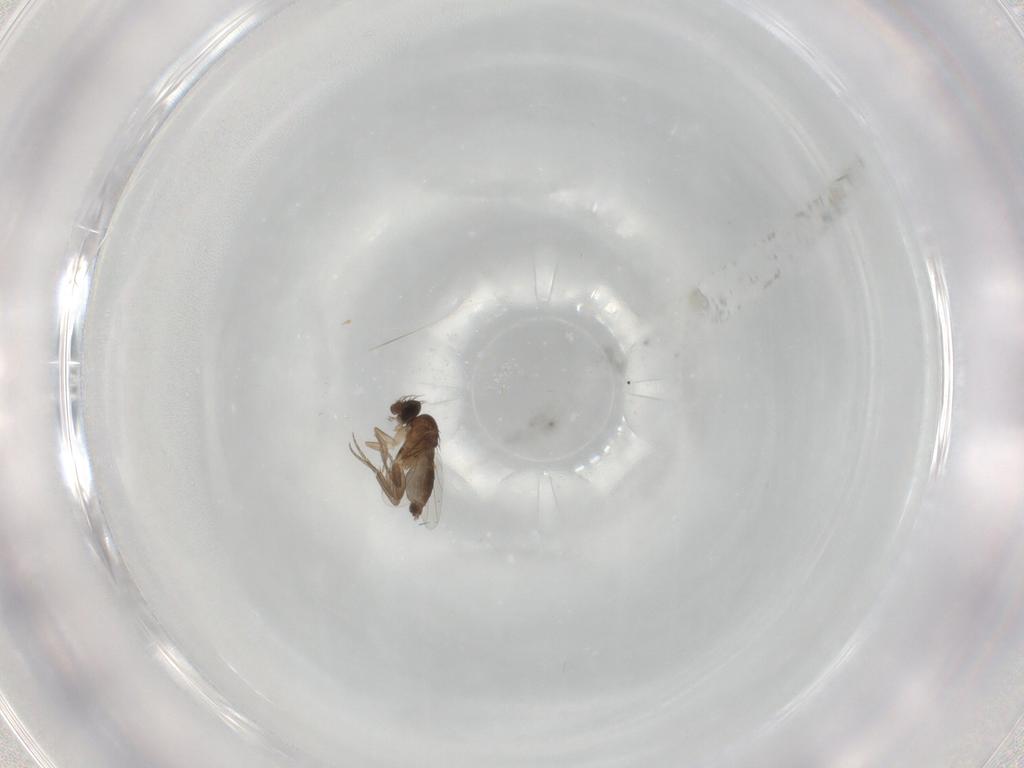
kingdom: Animalia
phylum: Arthropoda
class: Insecta
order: Diptera
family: Phoridae
